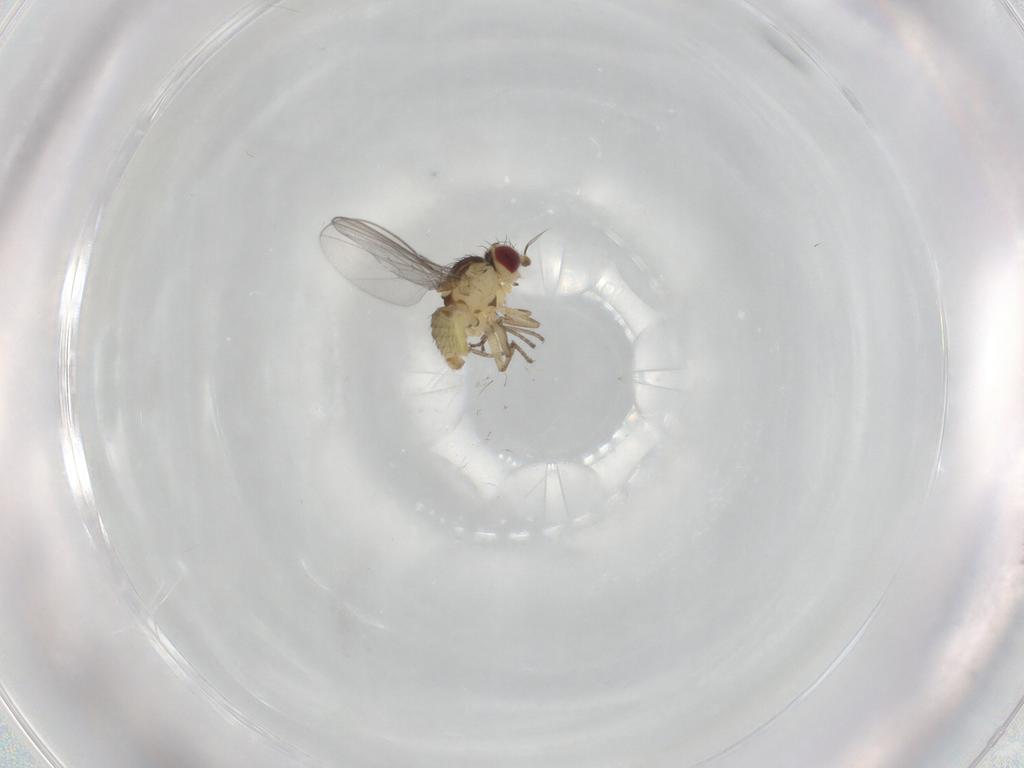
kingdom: Animalia
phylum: Arthropoda
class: Insecta
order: Diptera
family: Agromyzidae
